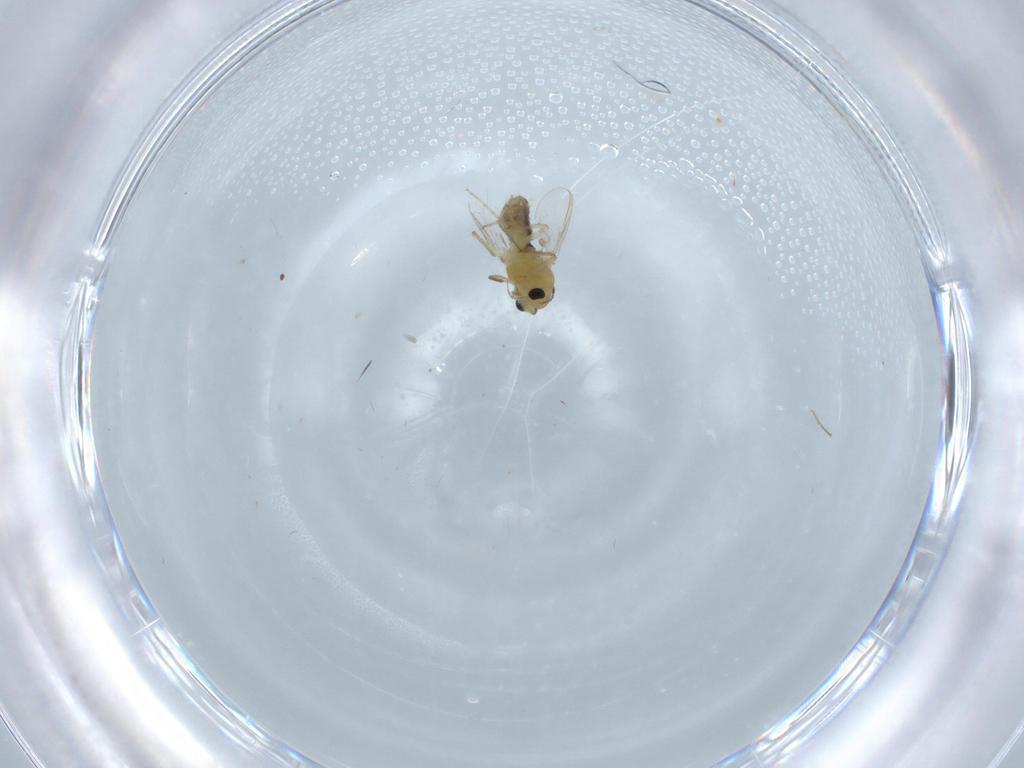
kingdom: Animalia
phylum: Arthropoda
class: Insecta
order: Diptera
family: Chironomidae
